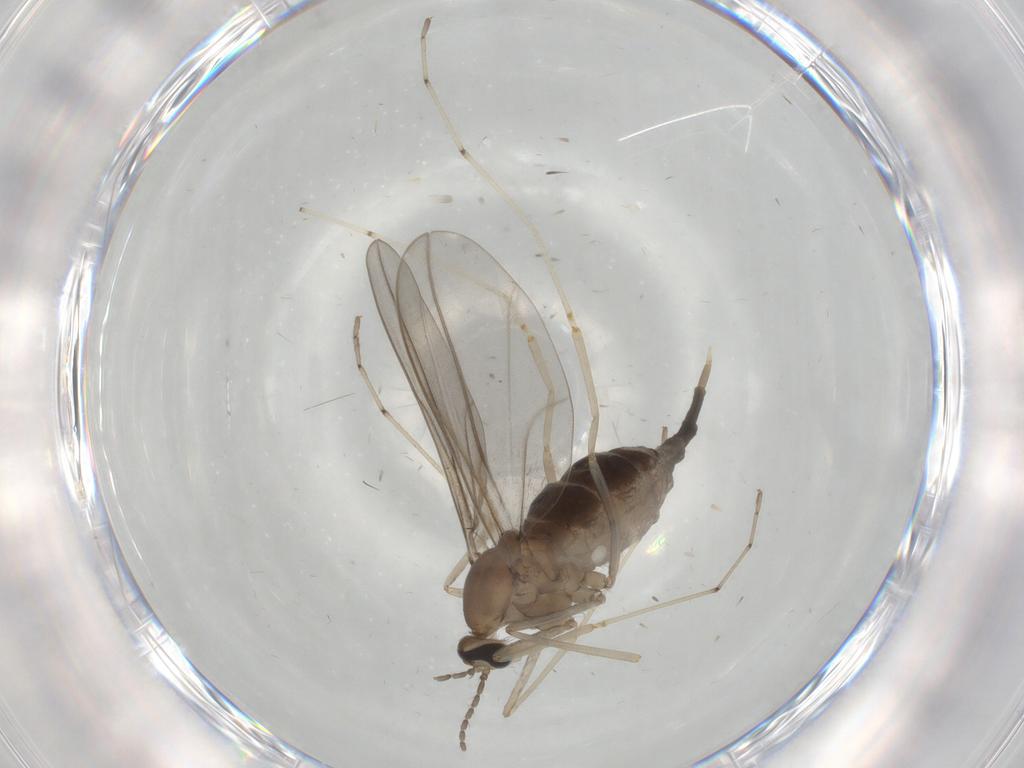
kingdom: Animalia
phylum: Arthropoda
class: Insecta
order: Diptera
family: Cecidomyiidae
